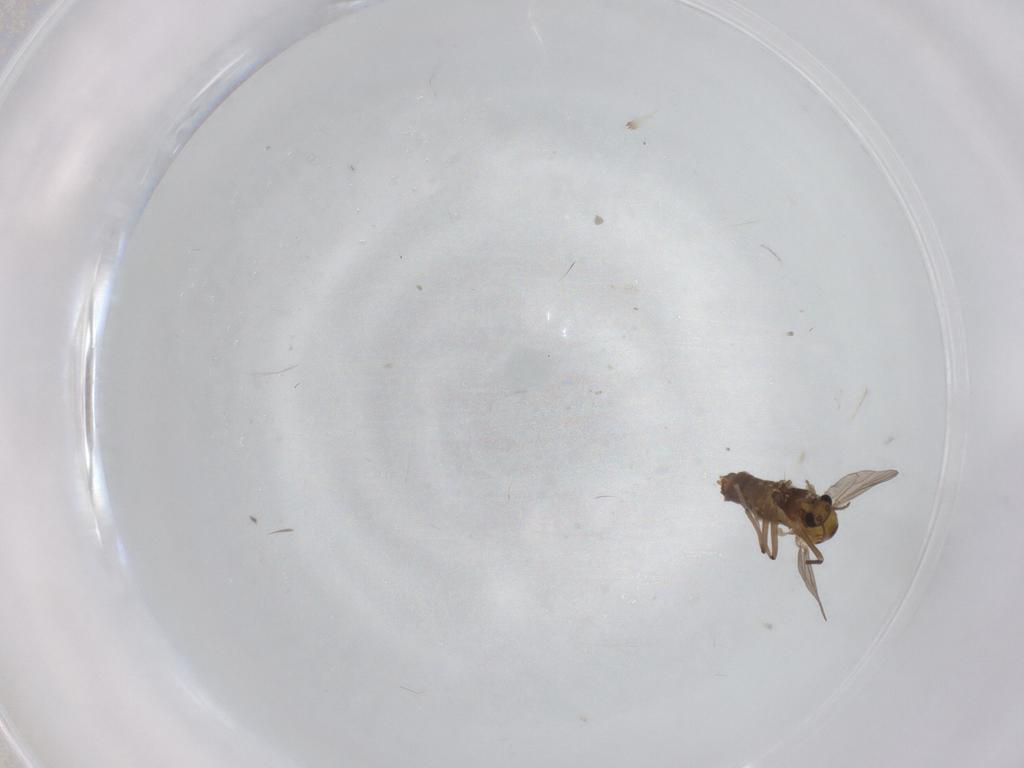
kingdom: Animalia
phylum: Arthropoda
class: Insecta
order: Diptera
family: Chironomidae
